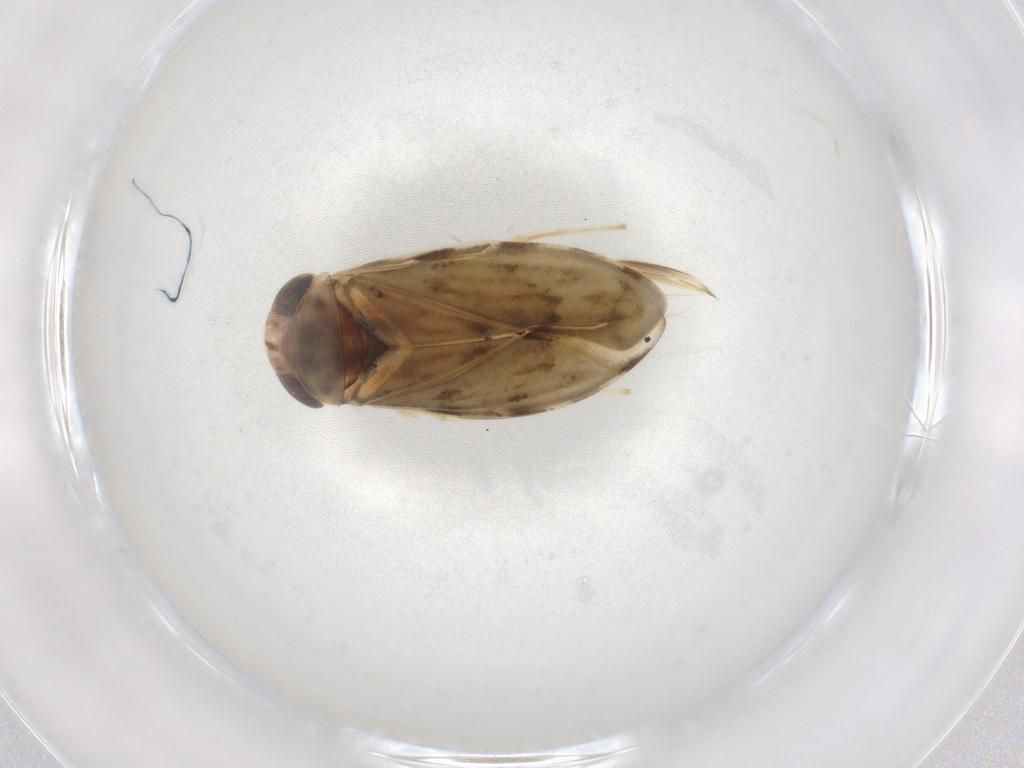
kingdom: Animalia
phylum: Arthropoda
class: Insecta
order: Hemiptera
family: Corixidae
